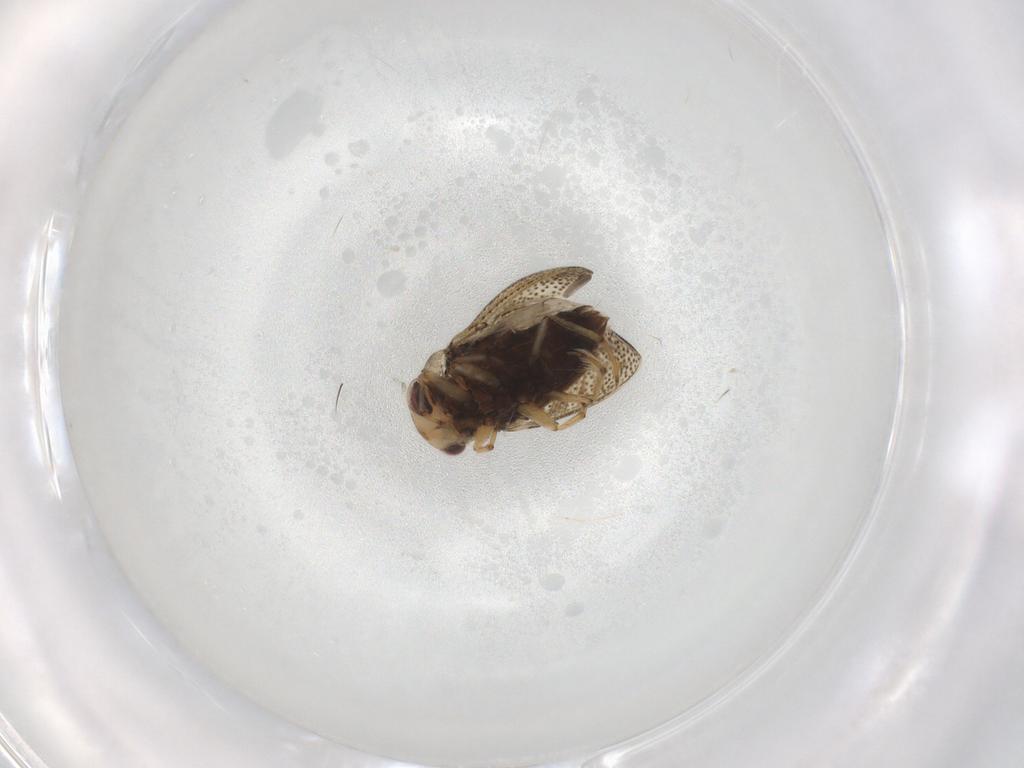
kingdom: Animalia
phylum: Arthropoda
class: Insecta
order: Hemiptera
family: Pleidae
